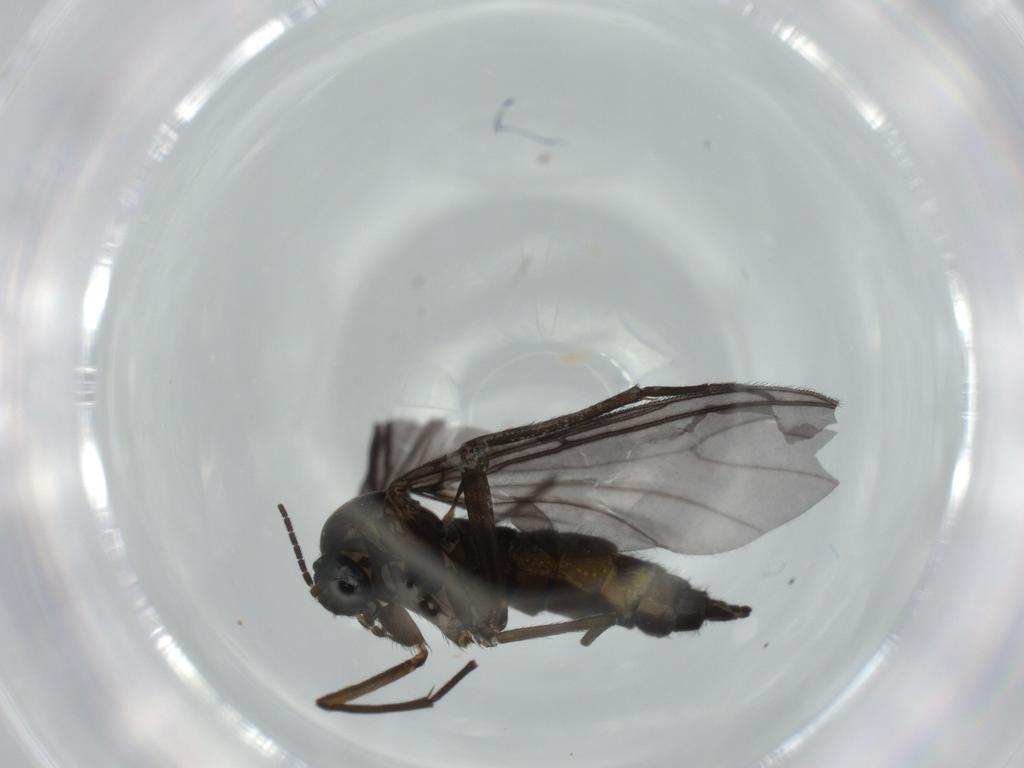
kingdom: Animalia
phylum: Arthropoda
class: Insecta
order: Diptera
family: Sciaridae
